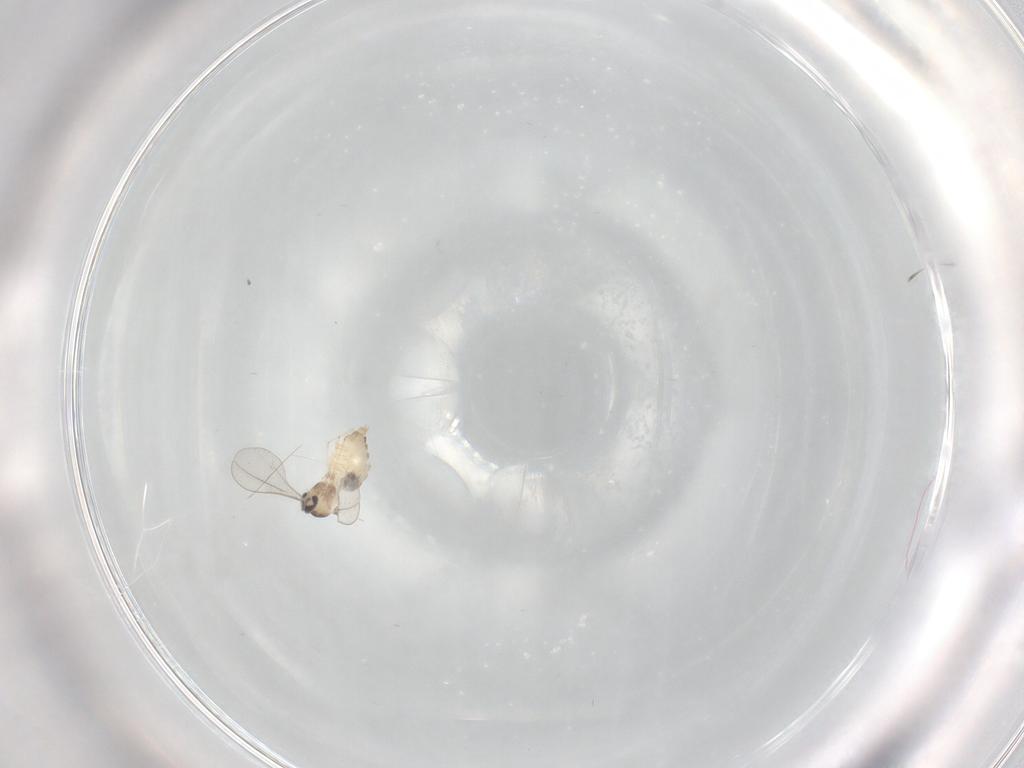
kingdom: Animalia
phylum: Arthropoda
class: Insecta
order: Diptera
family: Cecidomyiidae
